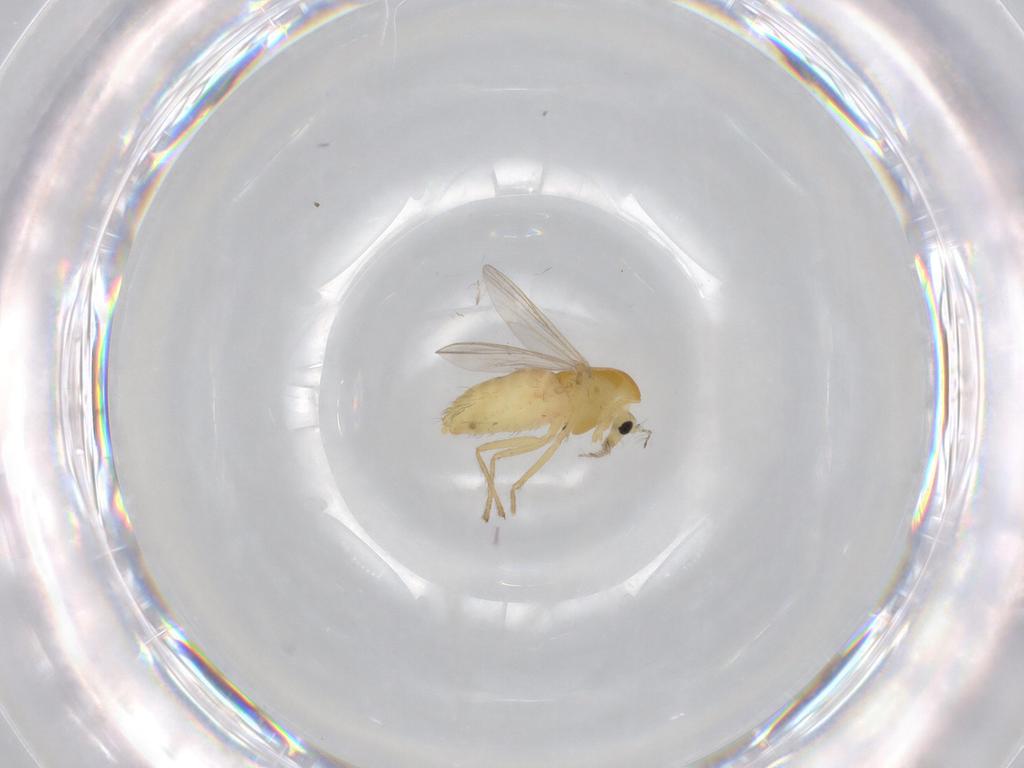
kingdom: Animalia
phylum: Arthropoda
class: Insecta
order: Diptera
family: Chironomidae
